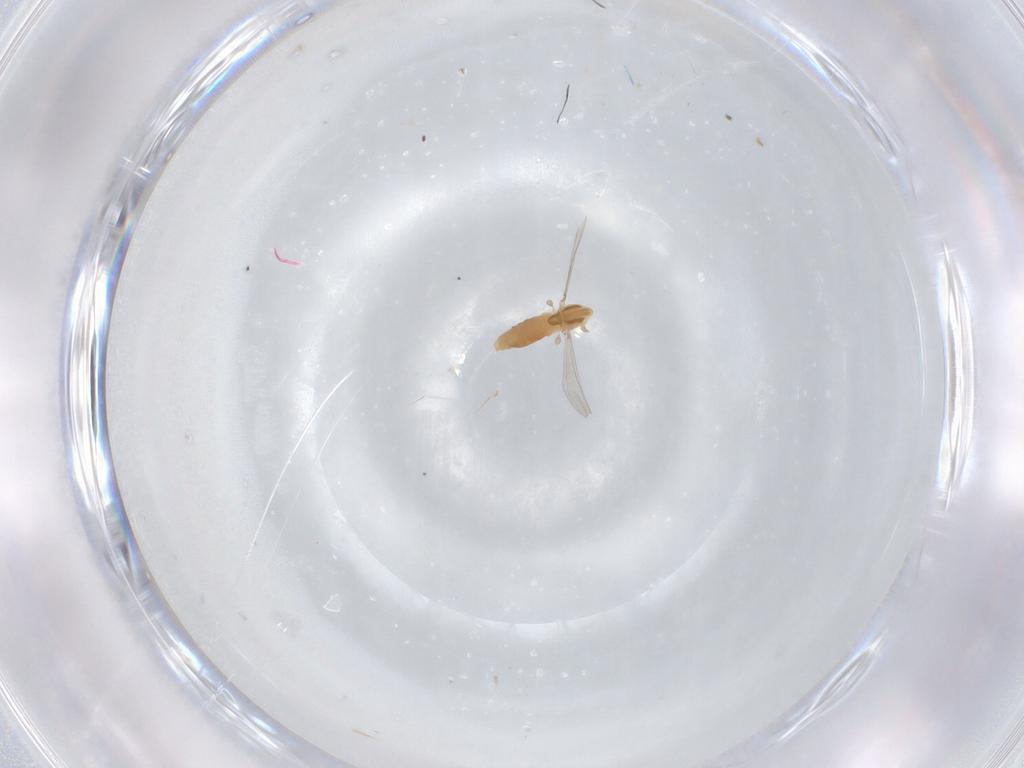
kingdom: Animalia
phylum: Arthropoda
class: Insecta
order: Diptera
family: Chironomidae
